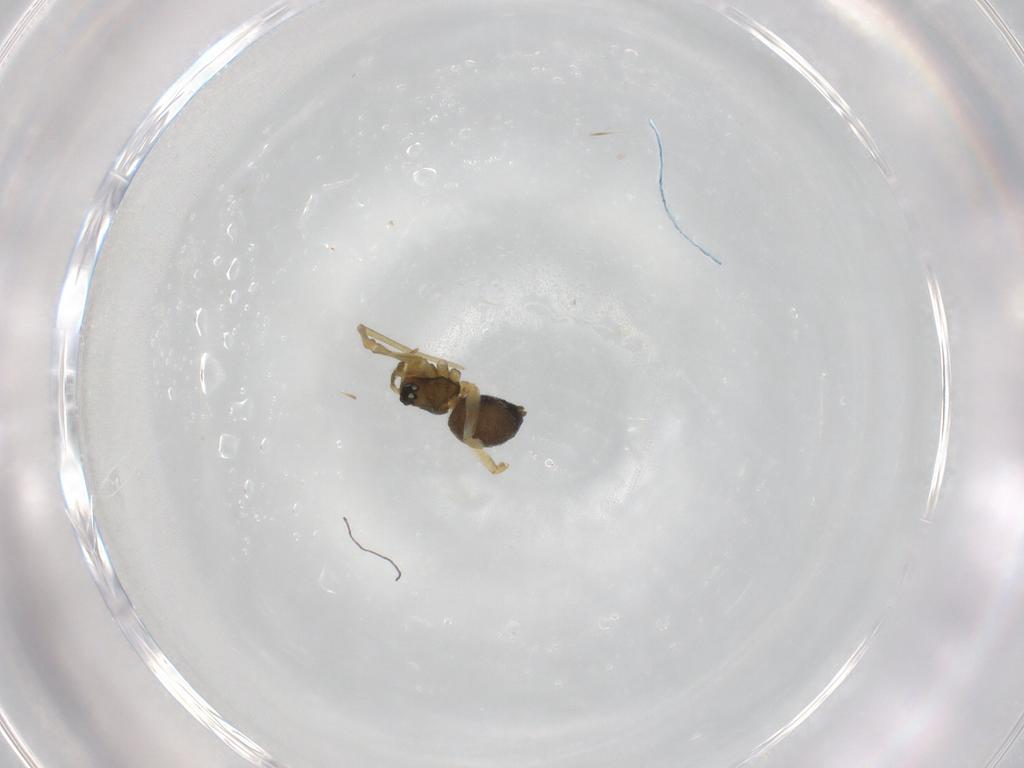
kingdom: Animalia
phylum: Arthropoda
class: Arachnida
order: Araneae
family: Linyphiidae
